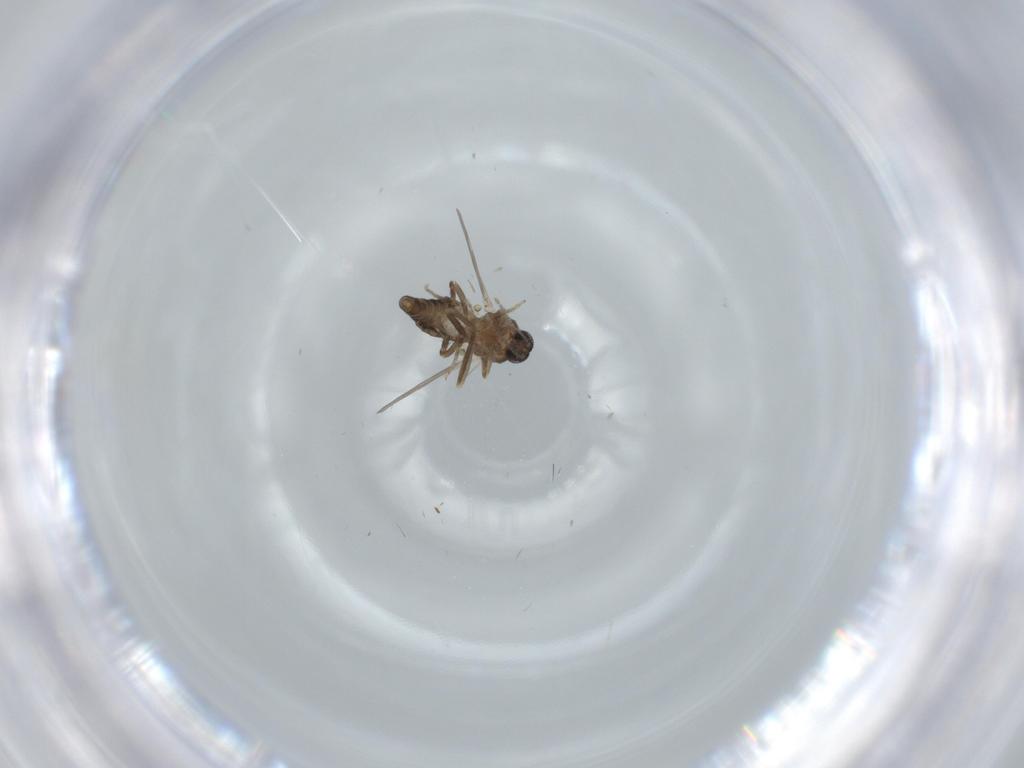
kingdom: Animalia
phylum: Arthropoda
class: Insecta
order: Diptera
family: Ceratopogonidae
